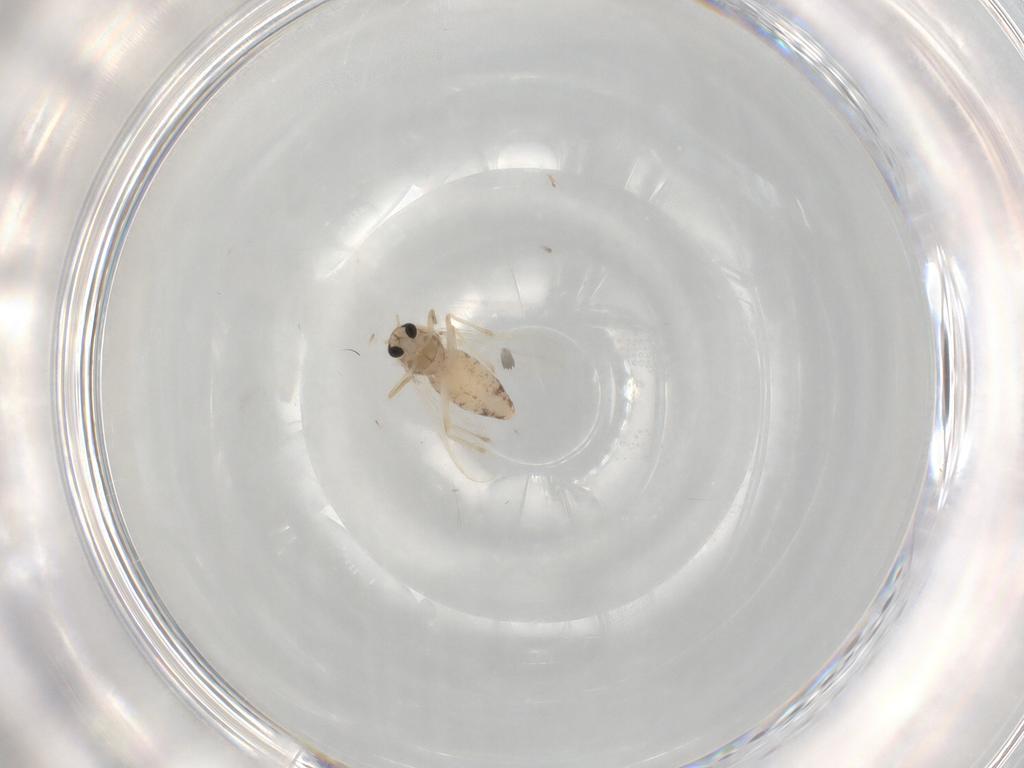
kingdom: Animalia
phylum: Arthropoda
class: Insecta
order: Diptera
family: Chironomidae
